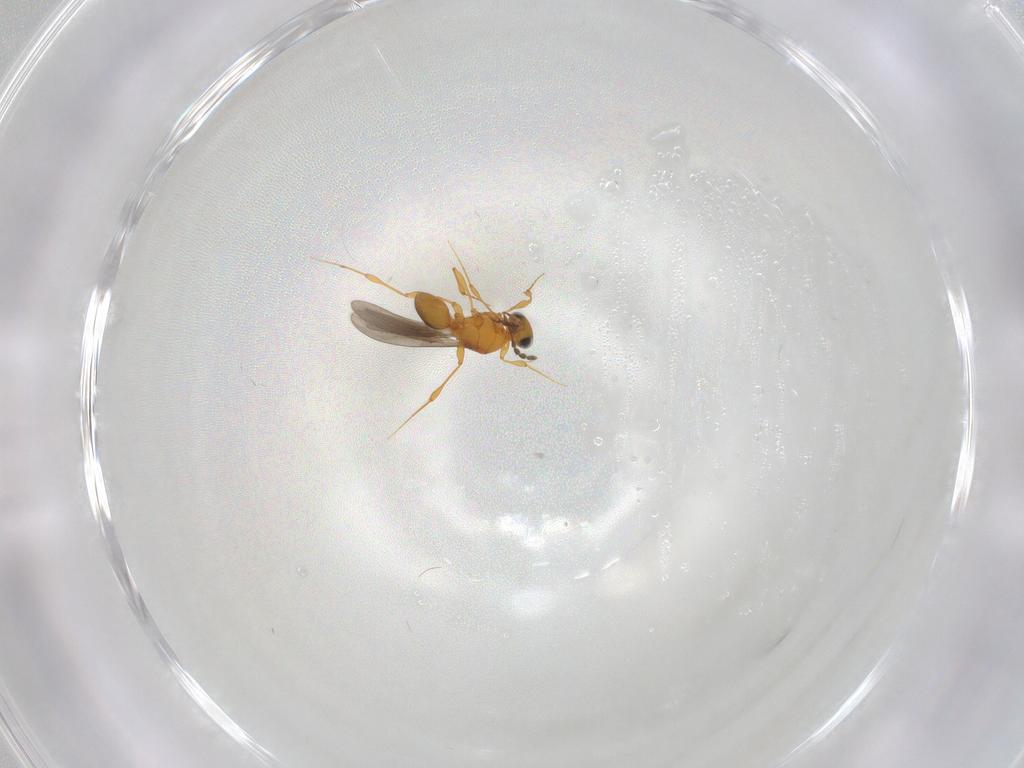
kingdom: Animalia
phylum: Arthropoda
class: Insecta
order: Hymenoptera
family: Platygastridae
